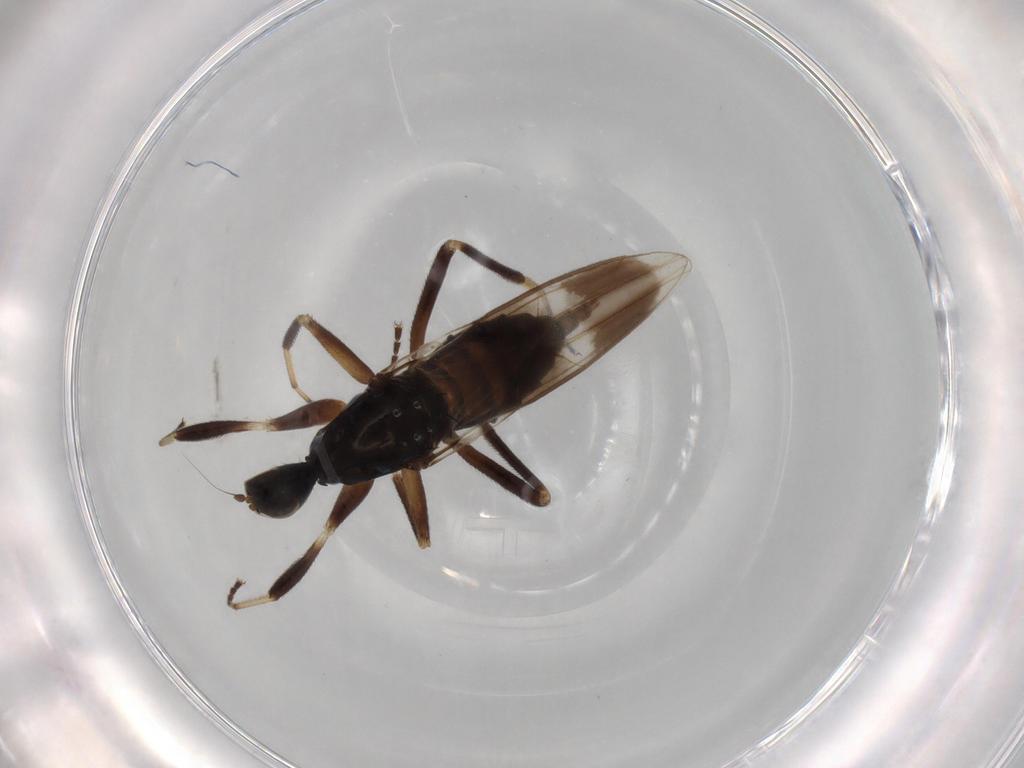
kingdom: Animalia
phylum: Arthropoda
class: Insecta
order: Diptera
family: Hybotidae
